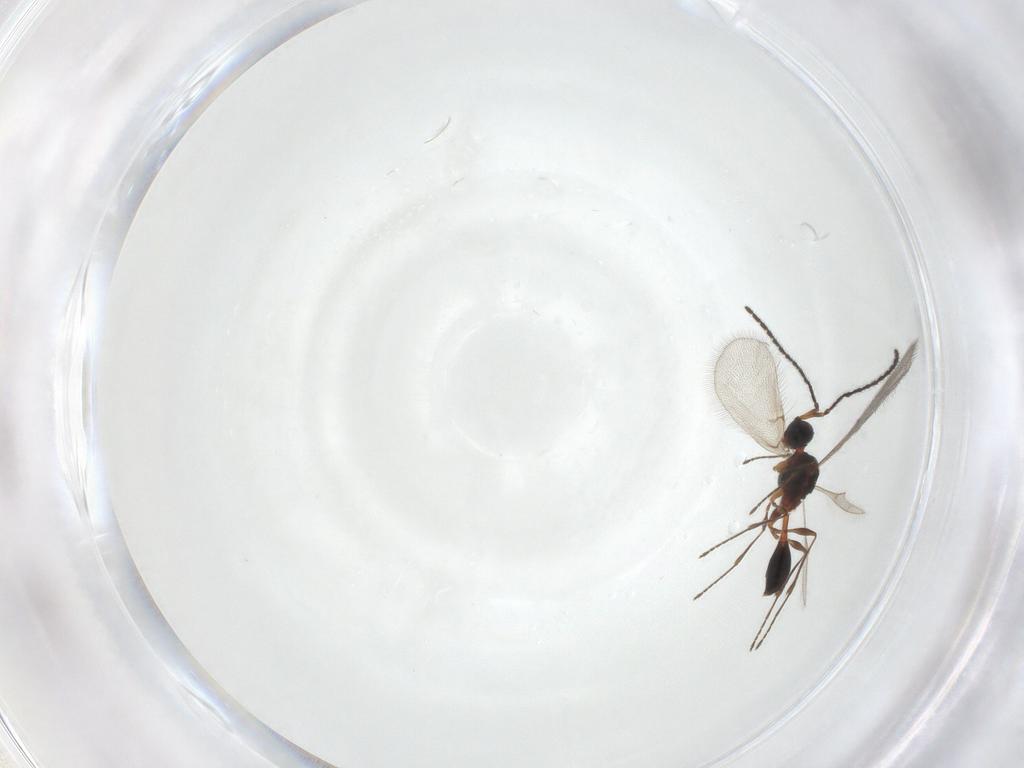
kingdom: Animalia
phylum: Arthropoda
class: Insecta
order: Hymenoptera
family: Diapriidae
